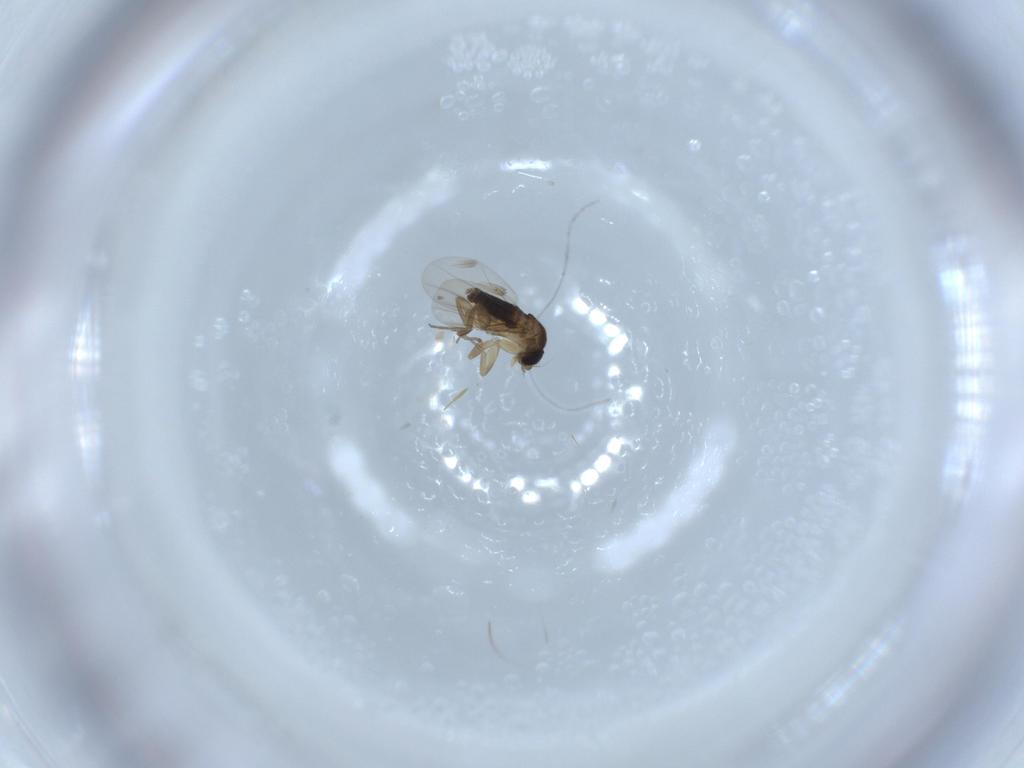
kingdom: Animalia
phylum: Arthropoda
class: Insecta
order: Diptera
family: Phoridae
